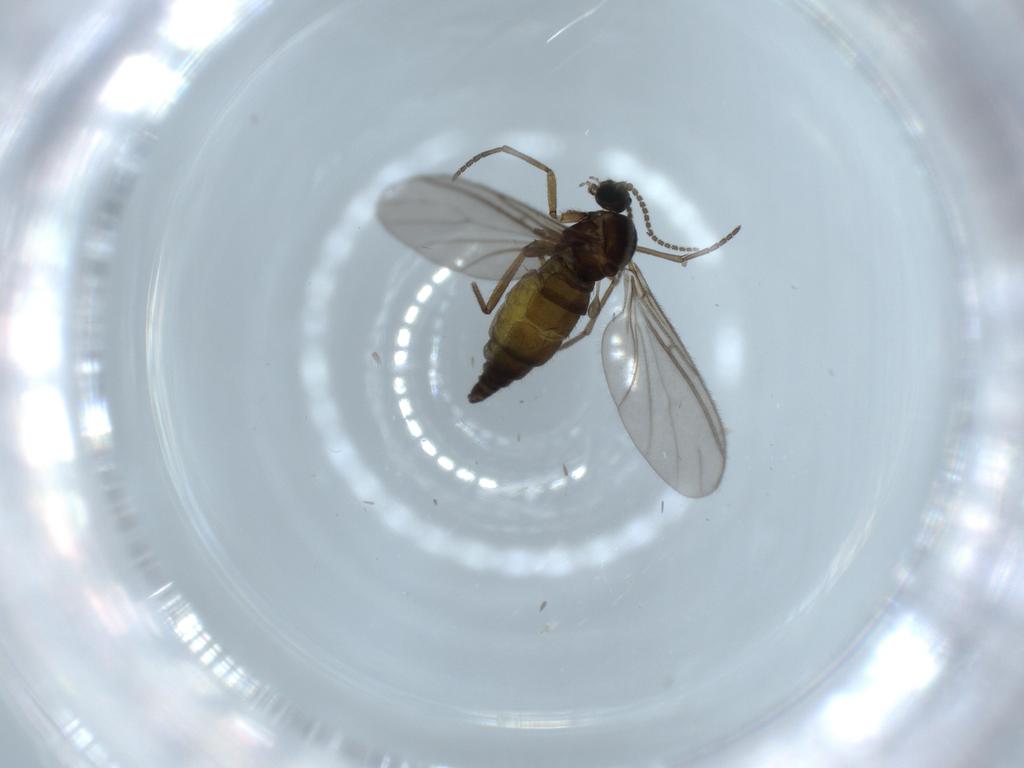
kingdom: Animalia
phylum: Arthropoda
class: Insecta
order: Diptera
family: Sciaridae
